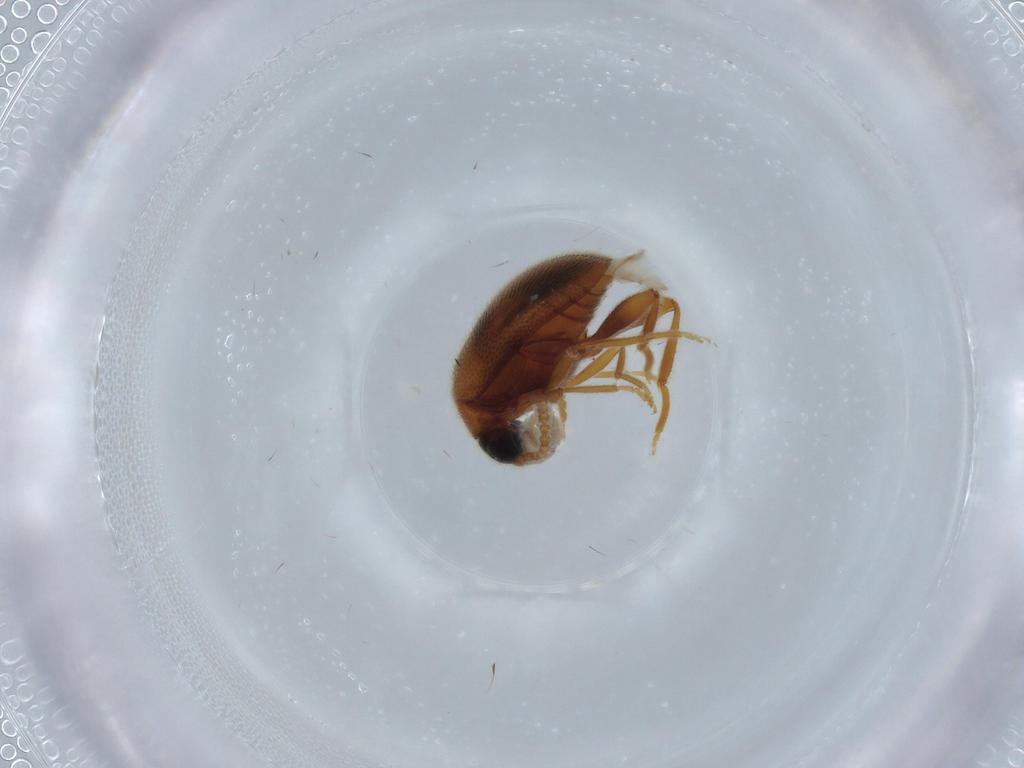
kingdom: Animalia
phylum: Arthropoda
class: Insecta
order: Coleoptera
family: Aderidae
